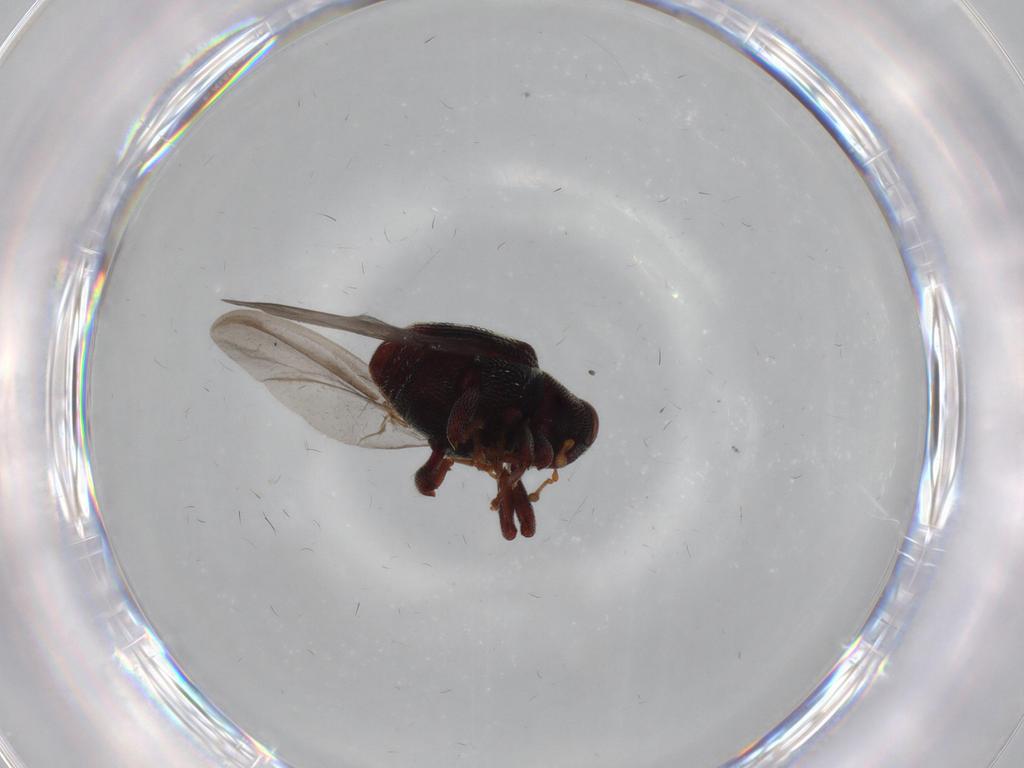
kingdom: Animalia
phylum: Arthropoda
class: Insecta
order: Coleoptera
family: Curculionidae
